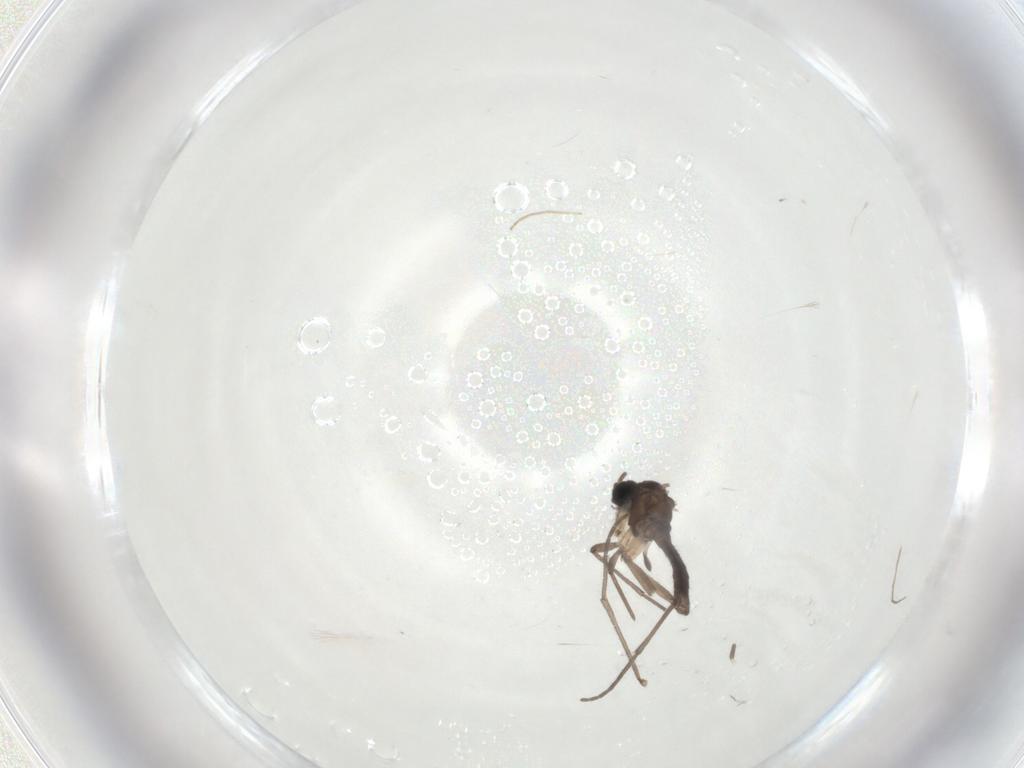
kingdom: Animalia
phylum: Arthropoda
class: Insecta
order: Diptera
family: Sciaridae
